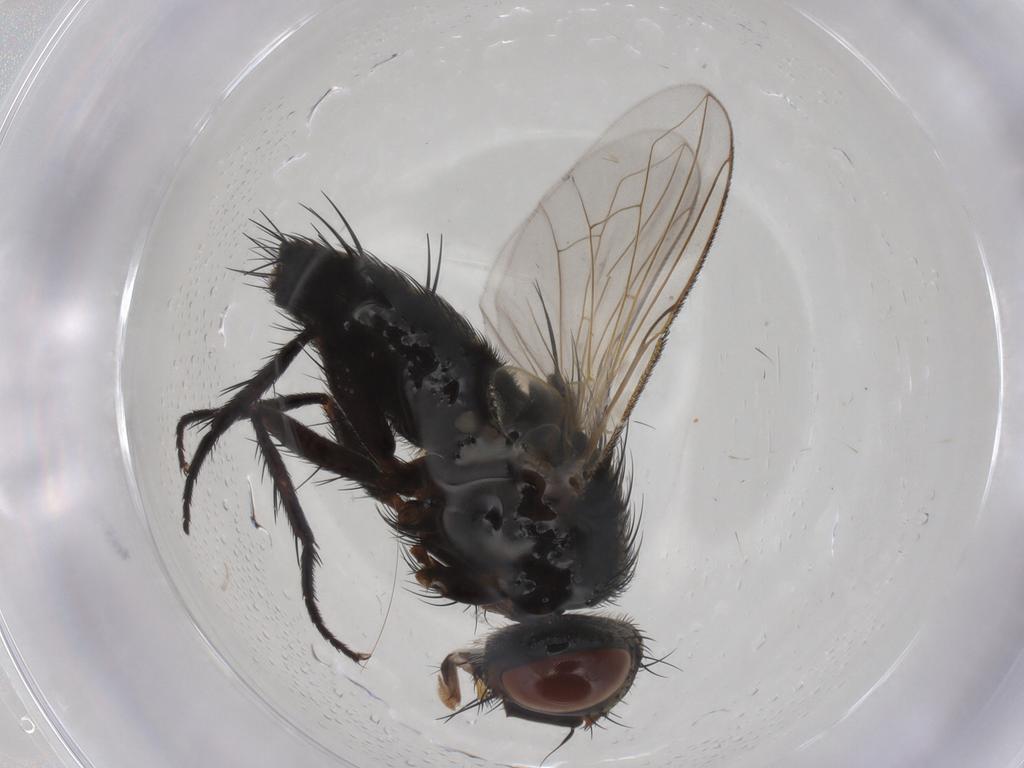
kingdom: Animalia
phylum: Arthropoda
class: Insecta
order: Diptera
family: Tachinidae
